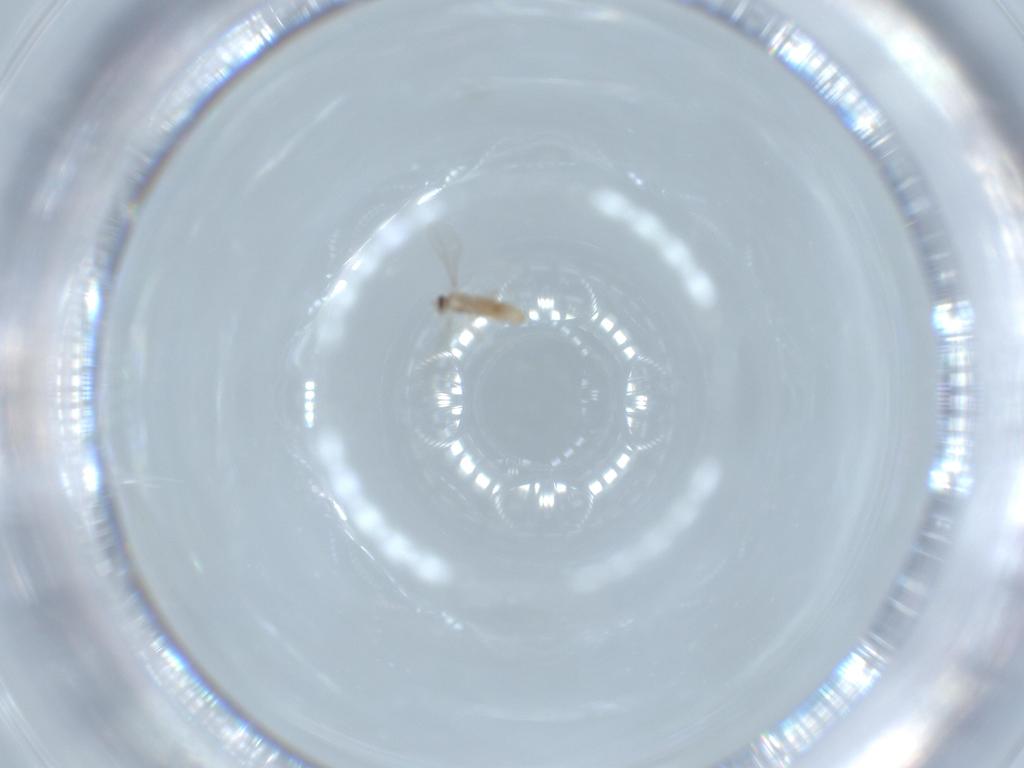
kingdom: Animalia
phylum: Arthropoda
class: Insecta
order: Diptera
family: Cecidomyiidae
